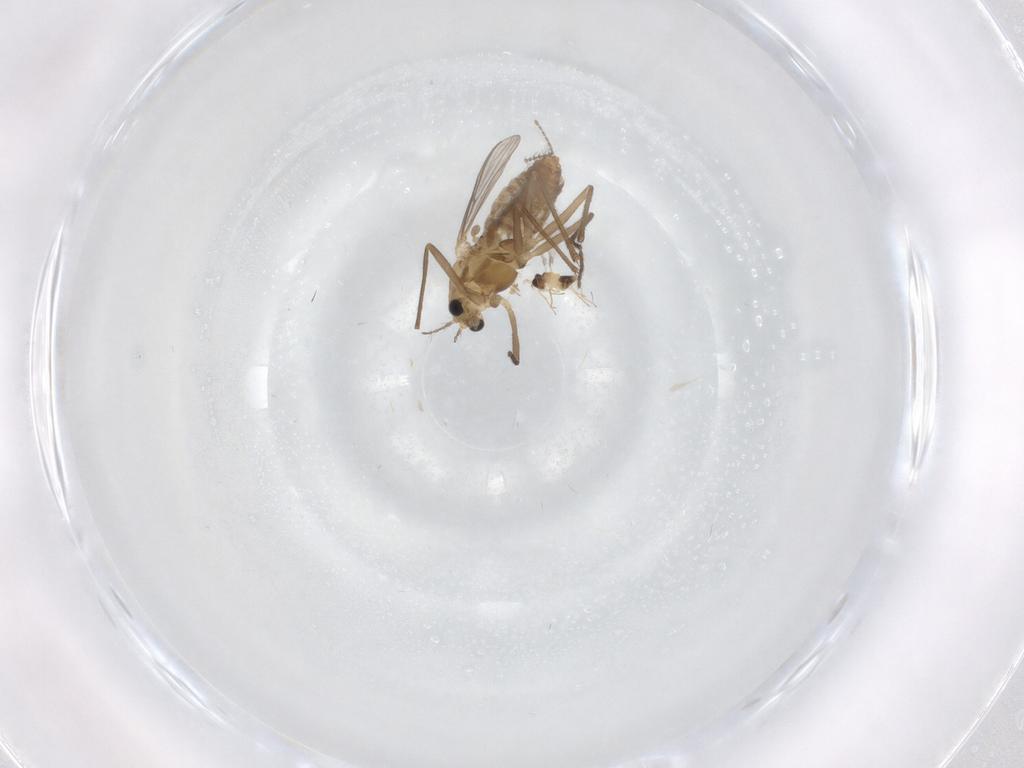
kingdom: Animalia
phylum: Arthropoda
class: Insecta
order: Diptera
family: Chironomidae
